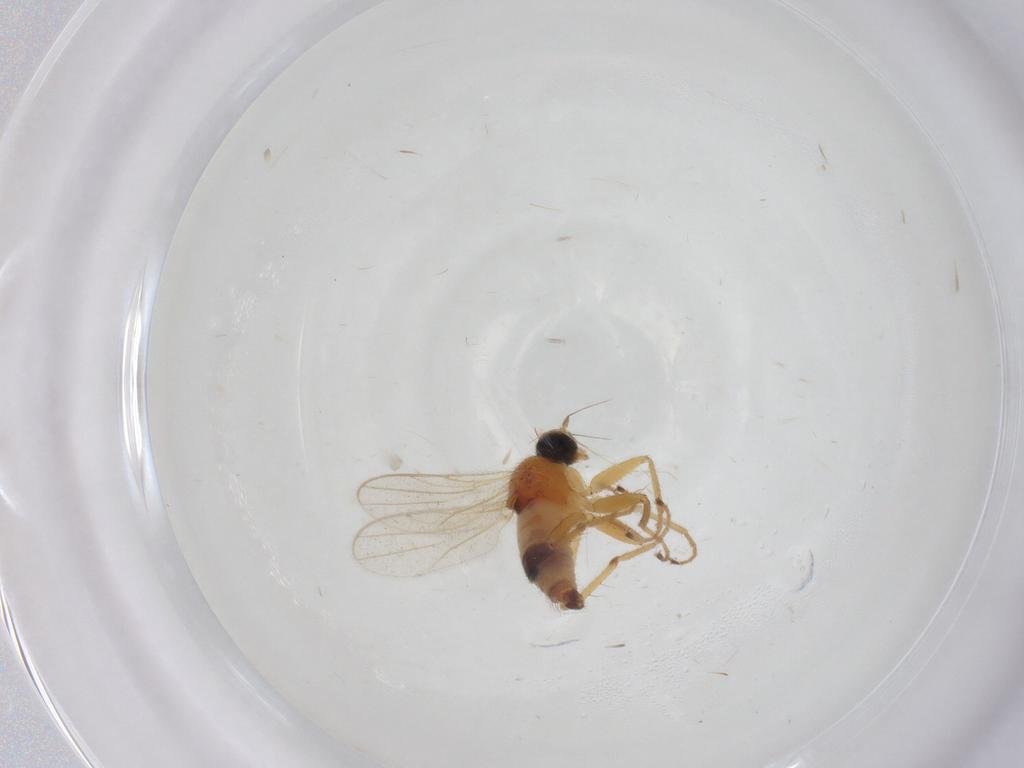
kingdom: Animalia
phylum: Arthropoda
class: Insecta
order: Diptera
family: Hybotidae
